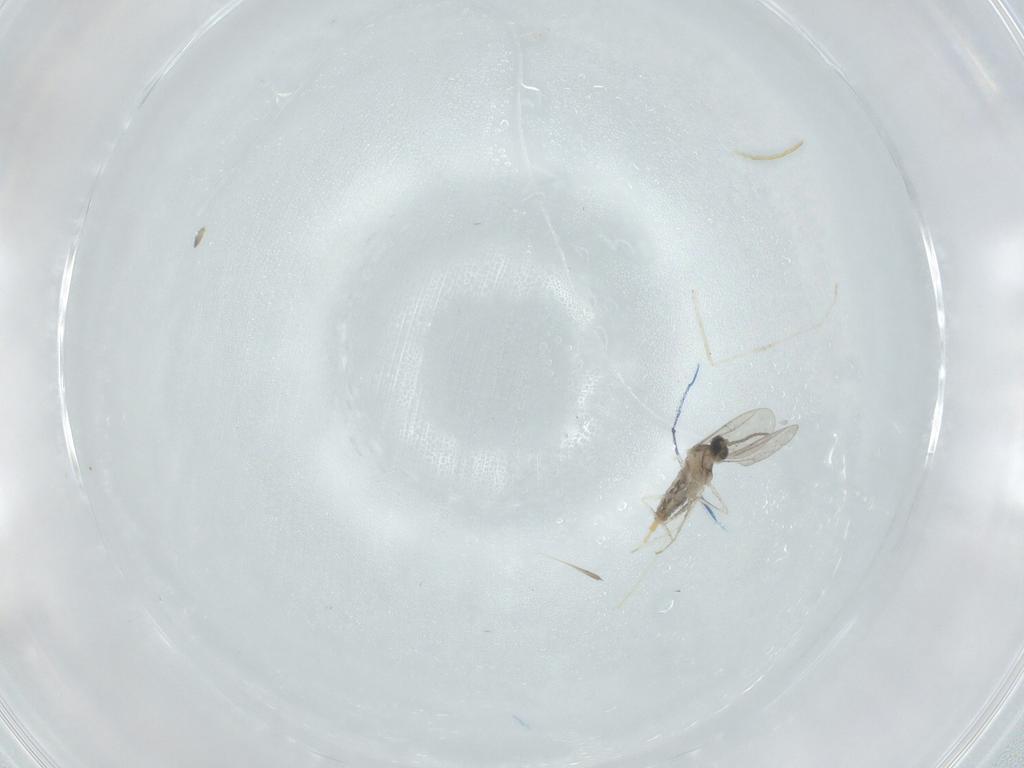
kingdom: Animalia
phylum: Arthropoda
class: Insecta
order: Diptera
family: Cecidomyiidae
